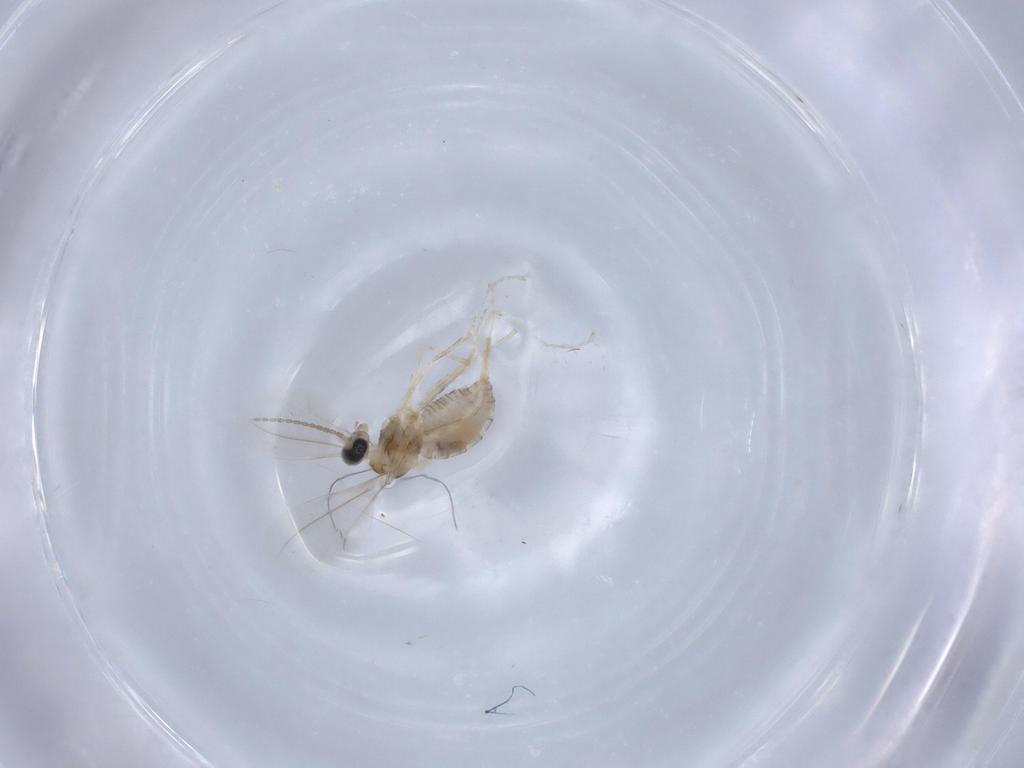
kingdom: Animalia
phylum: Arthropoda
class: Insecta
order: Diptera
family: Cecidomyiidae
